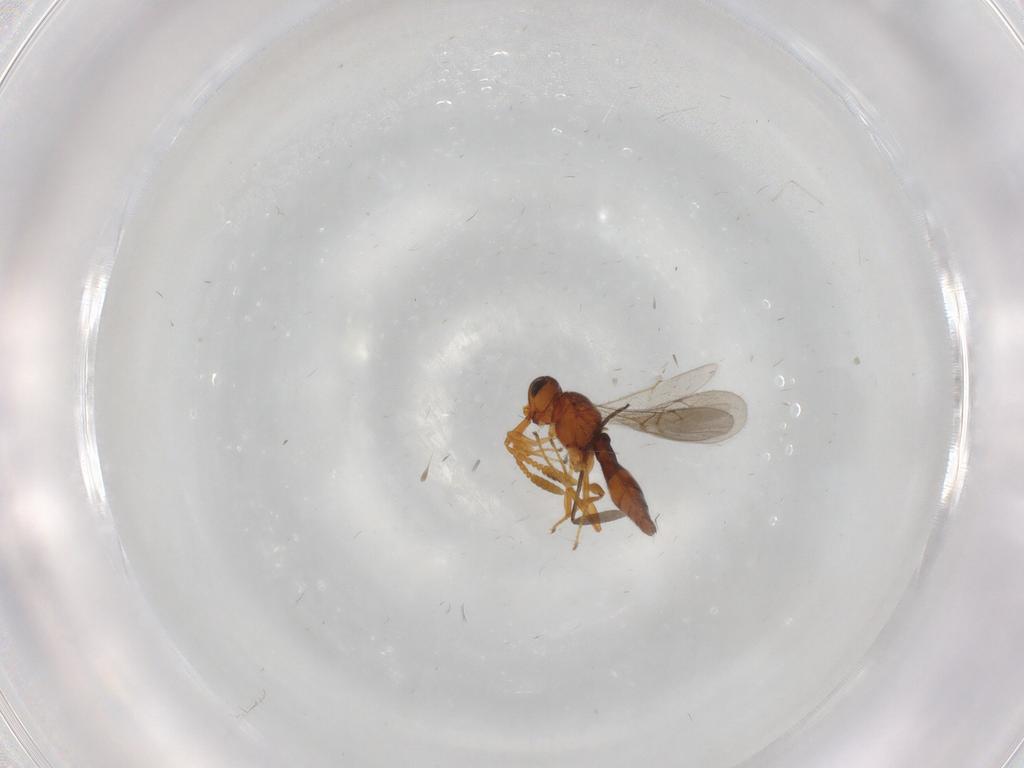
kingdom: Animalia
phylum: Arthropoda
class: Insecta
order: Hymenoptera
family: Scelionidae
